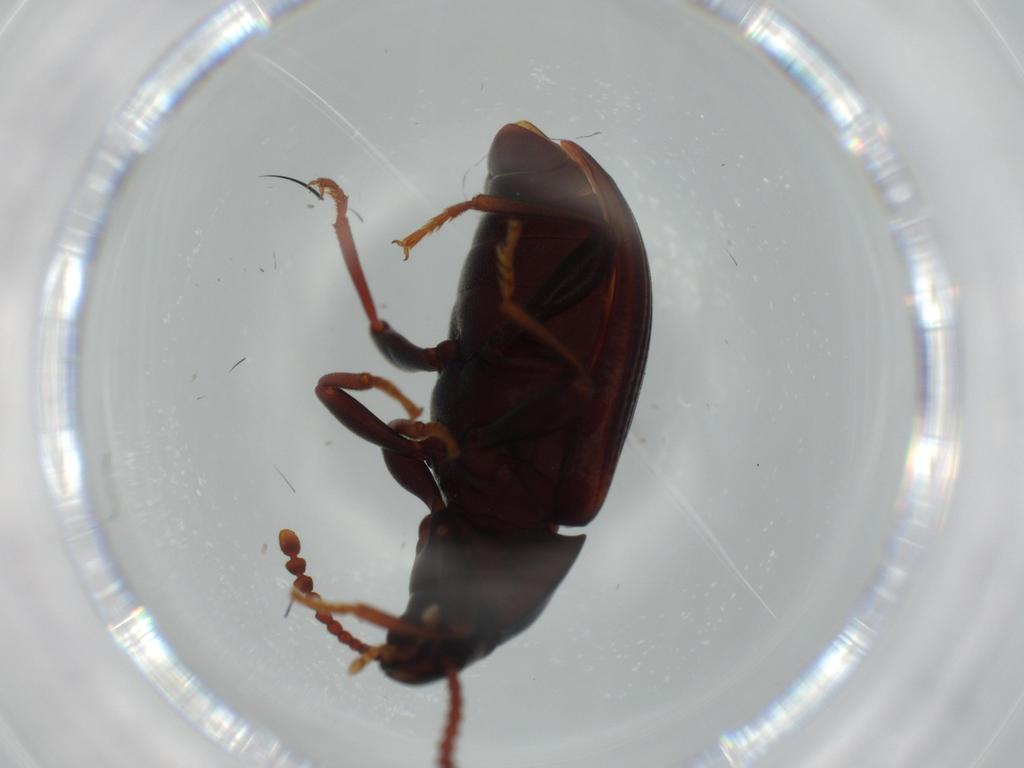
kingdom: Animalia
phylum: Arthropoda
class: Insecta
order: Coleoptera
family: Tenebrionidae
